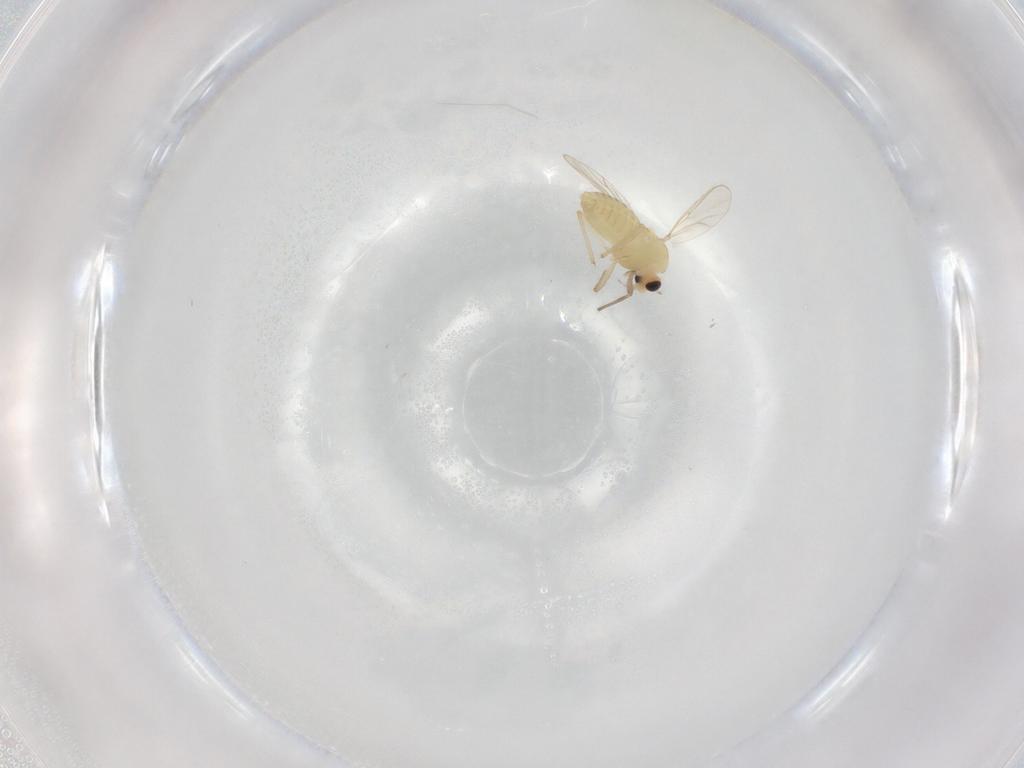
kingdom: Animalia
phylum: Arthropoda
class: Insecta
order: Diptera
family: Chironomidae
